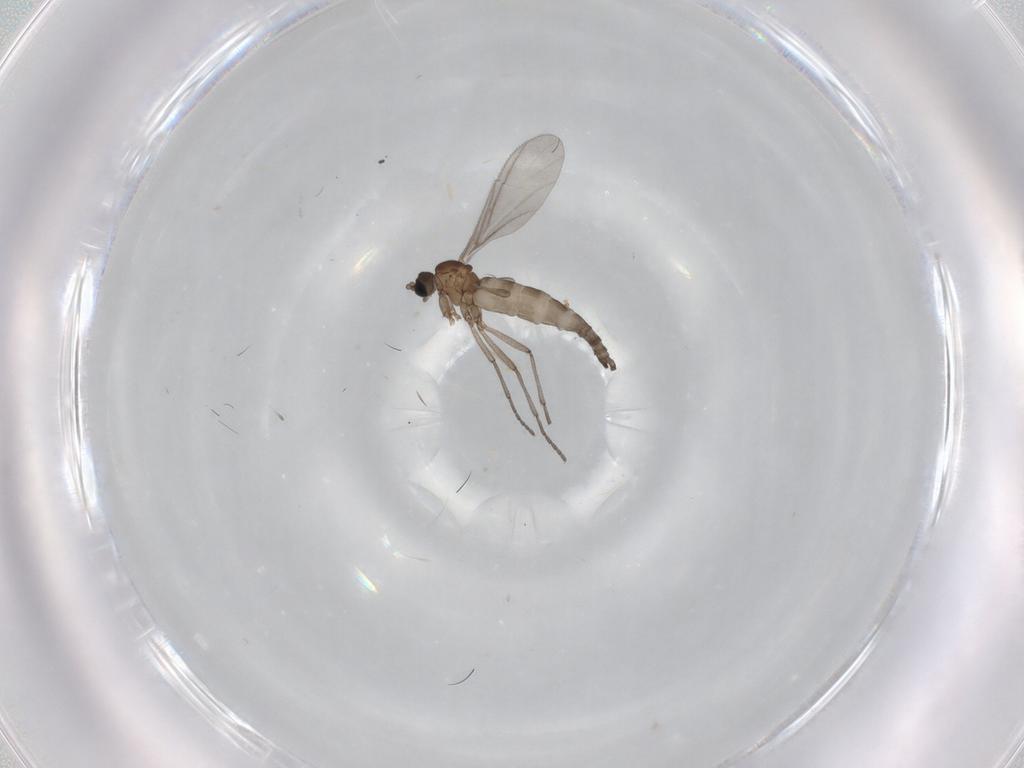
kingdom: Animalia
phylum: Arthropoda
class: Insecta
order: Diptera
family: Sciaridae
